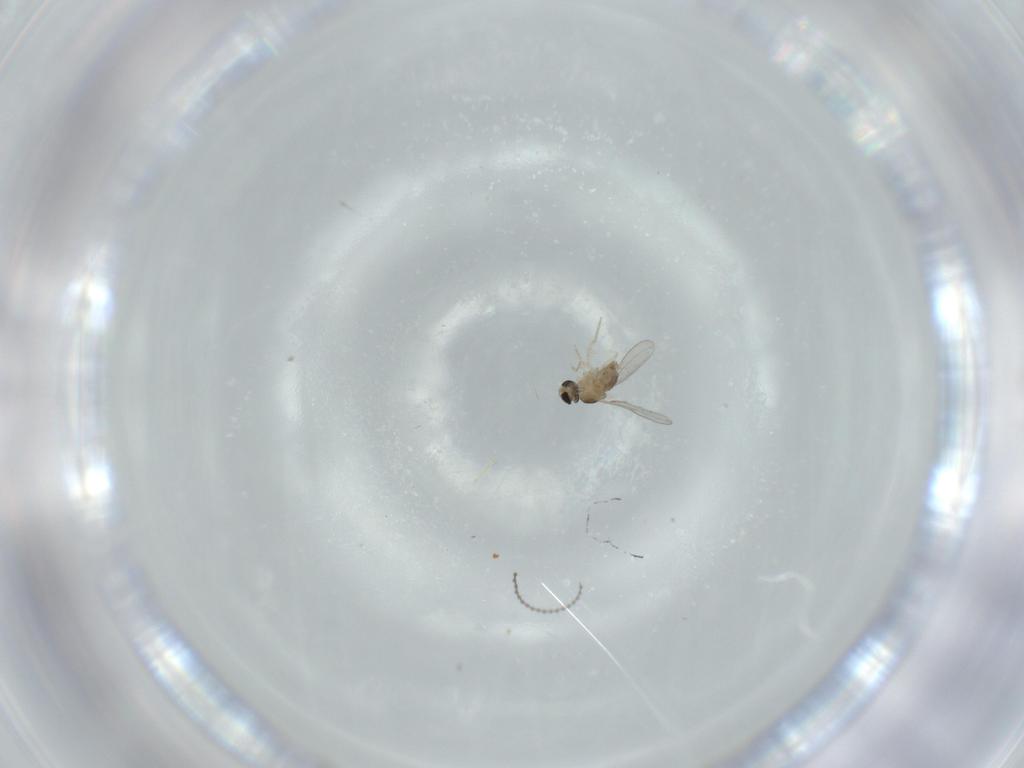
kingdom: Animalia
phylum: Arthropoda
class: Insecta
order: Diptera
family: Cecidomyiidae
